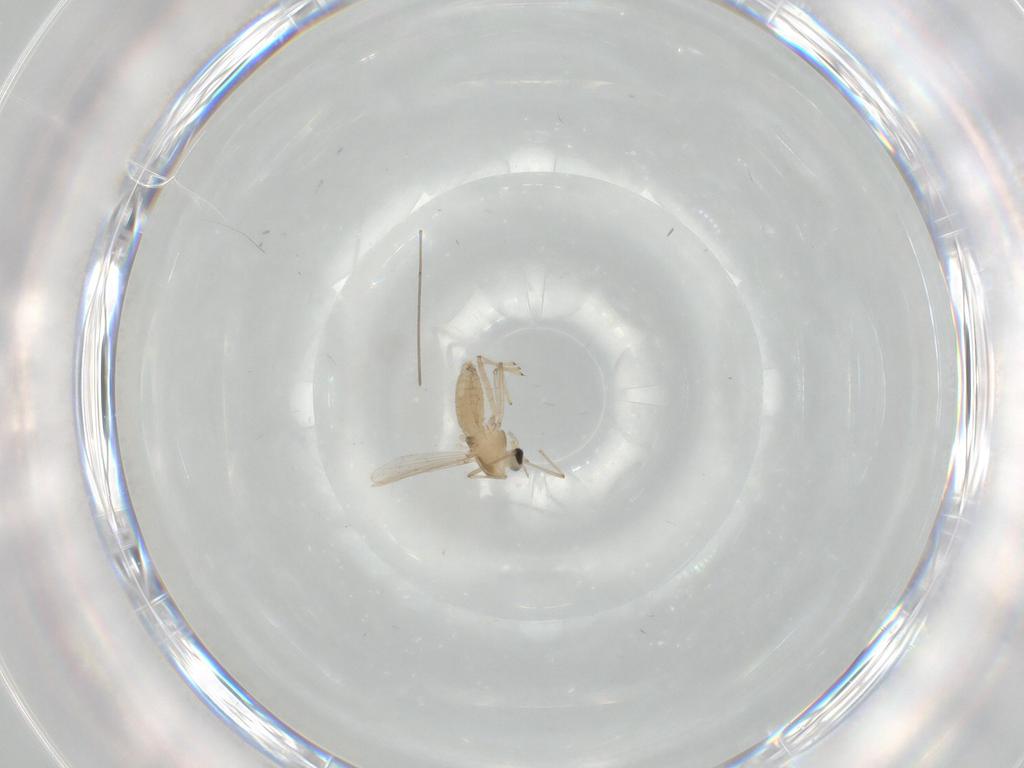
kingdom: Animalia
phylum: Arthropoda
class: Insecta
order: Diptera
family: Chironomidae
